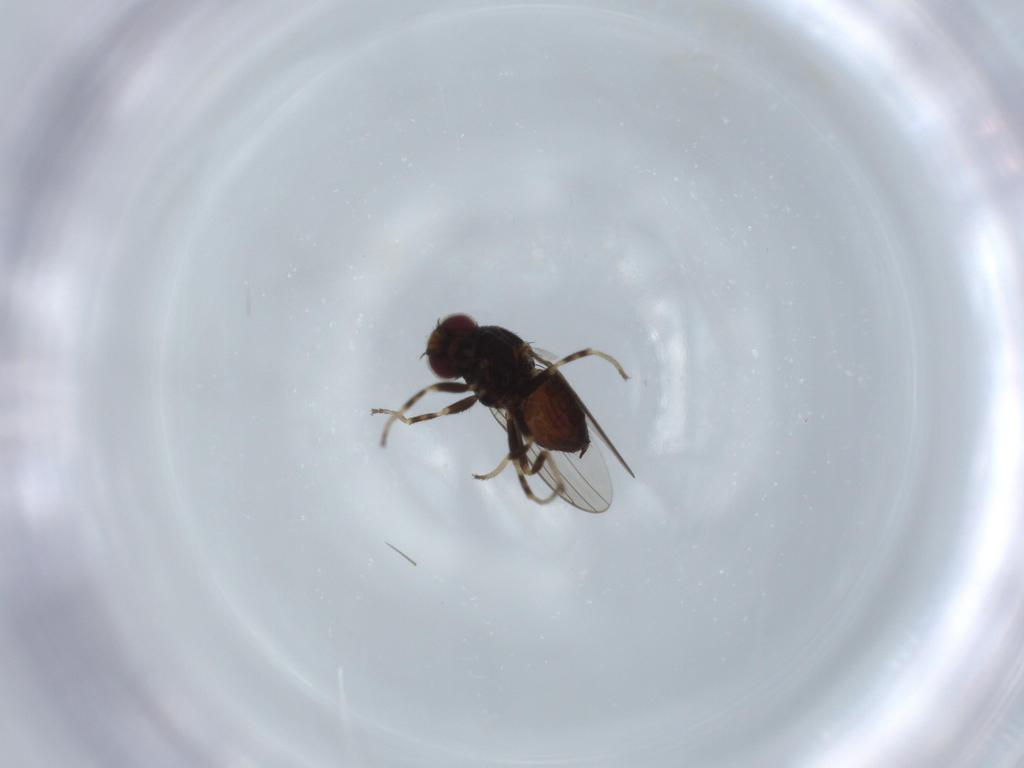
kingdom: Animalia
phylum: Arthropoda
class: Insecta
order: Diptera
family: Chloropidae
